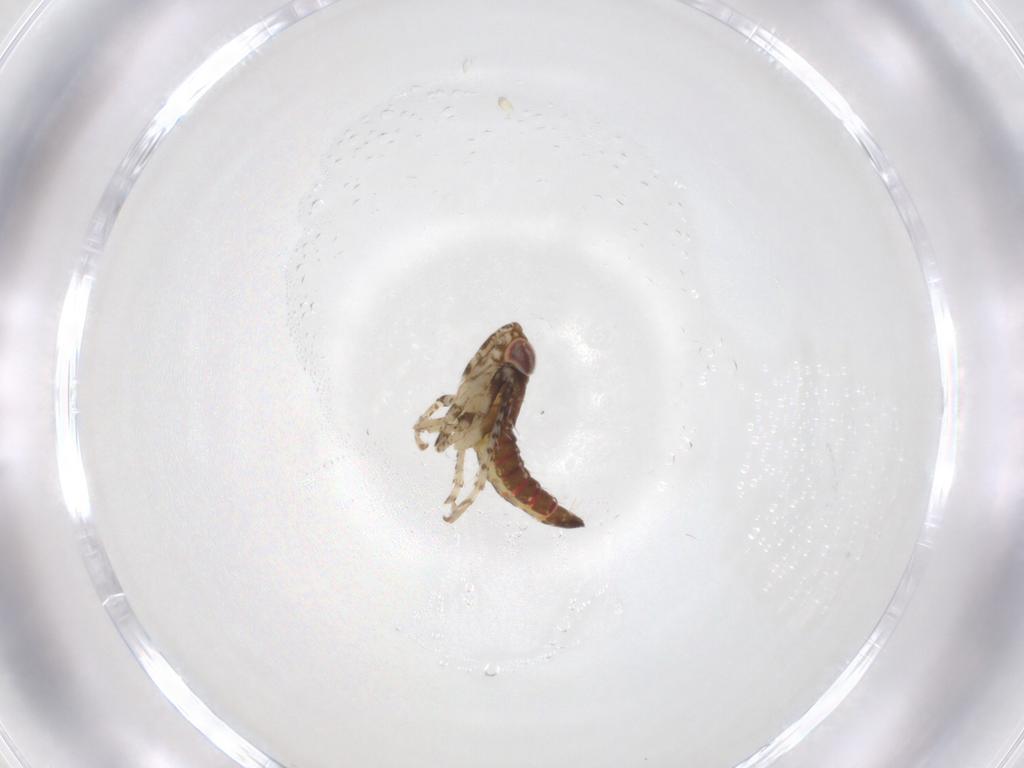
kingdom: Animalia
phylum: Arthropoda
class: Insecta
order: Hemiptera
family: Cicadellidae
